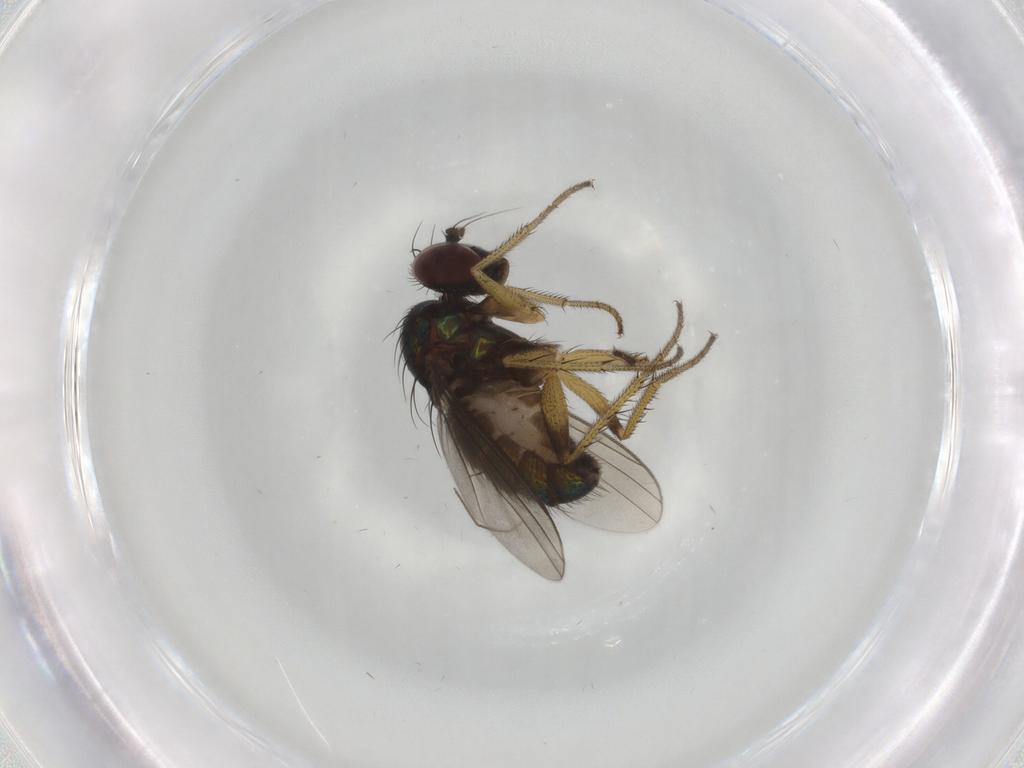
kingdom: Animalia
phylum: Arthropoda
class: Insecta
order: Diptera
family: Dolichopodidae
